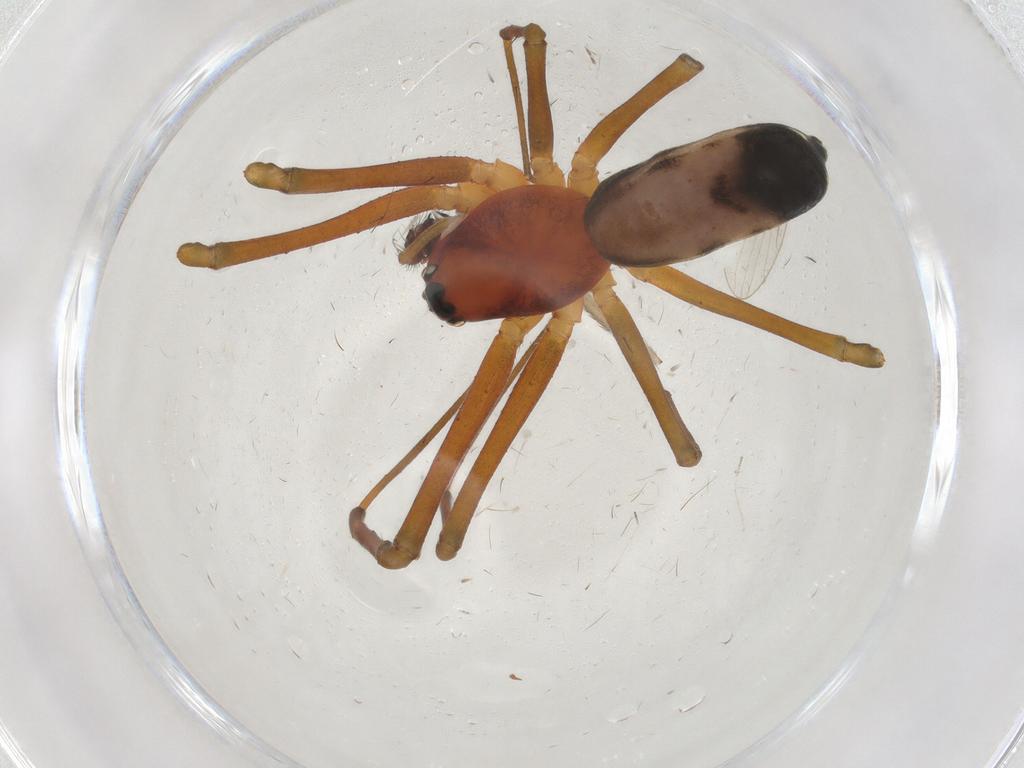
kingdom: Animalia
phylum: Arthropoda
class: Arachnida
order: Araneae
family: Linyphiidae
